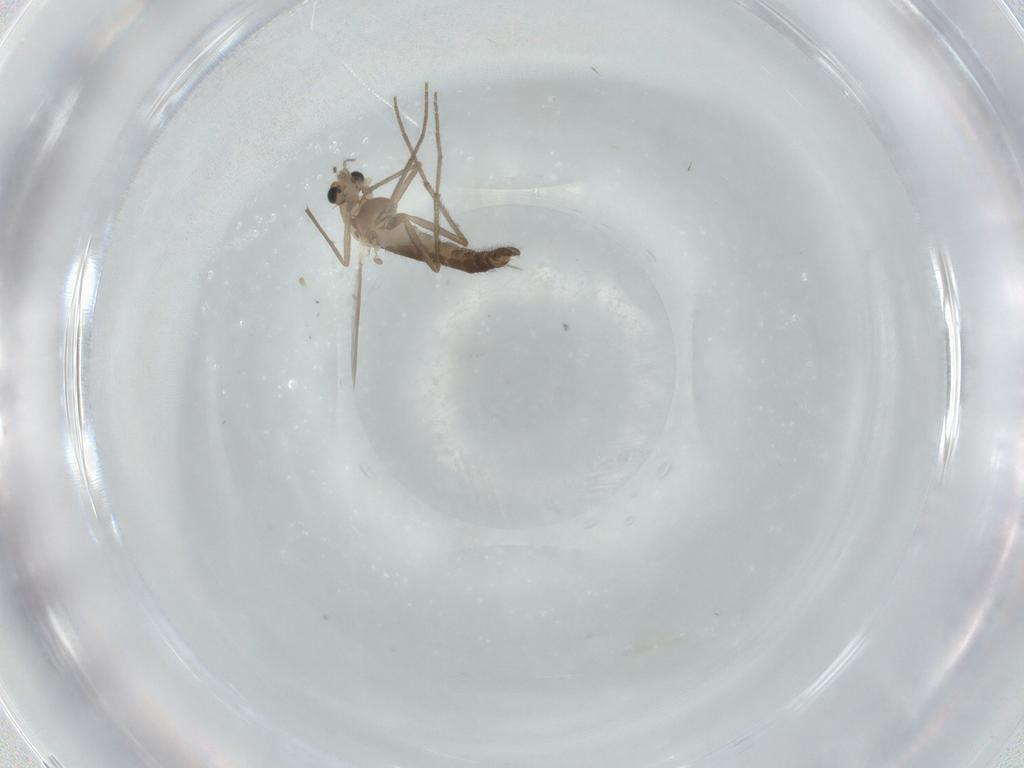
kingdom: Animalia
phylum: Arthropoda
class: Insecta
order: Diptera
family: Chironomidae
